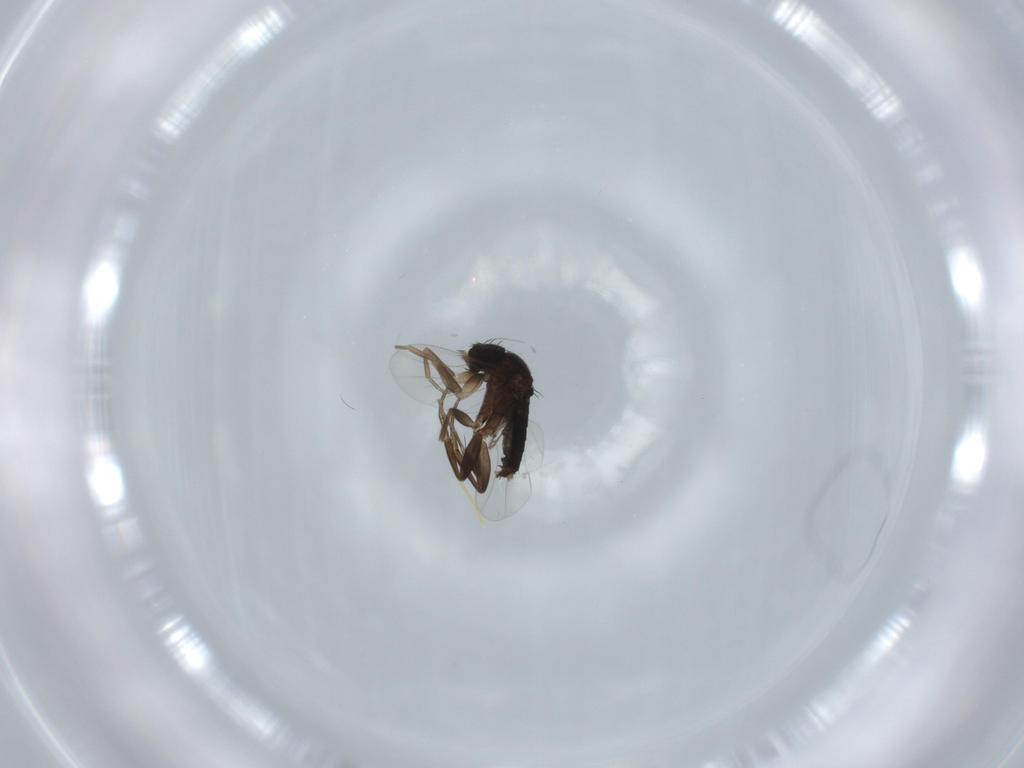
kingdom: Animalia
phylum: Arthropoda
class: Insecta
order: Diptera
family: Phoridae
